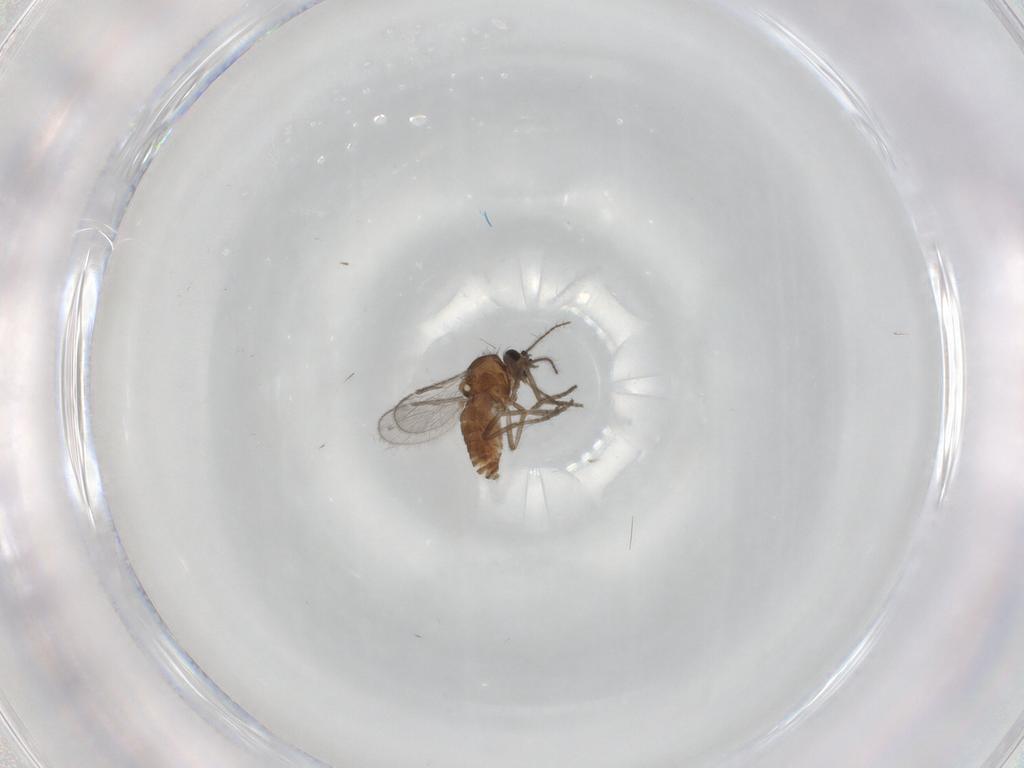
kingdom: Animalia
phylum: Arthropoda
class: Insecta
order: Diptera
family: Ceratopogonidae
